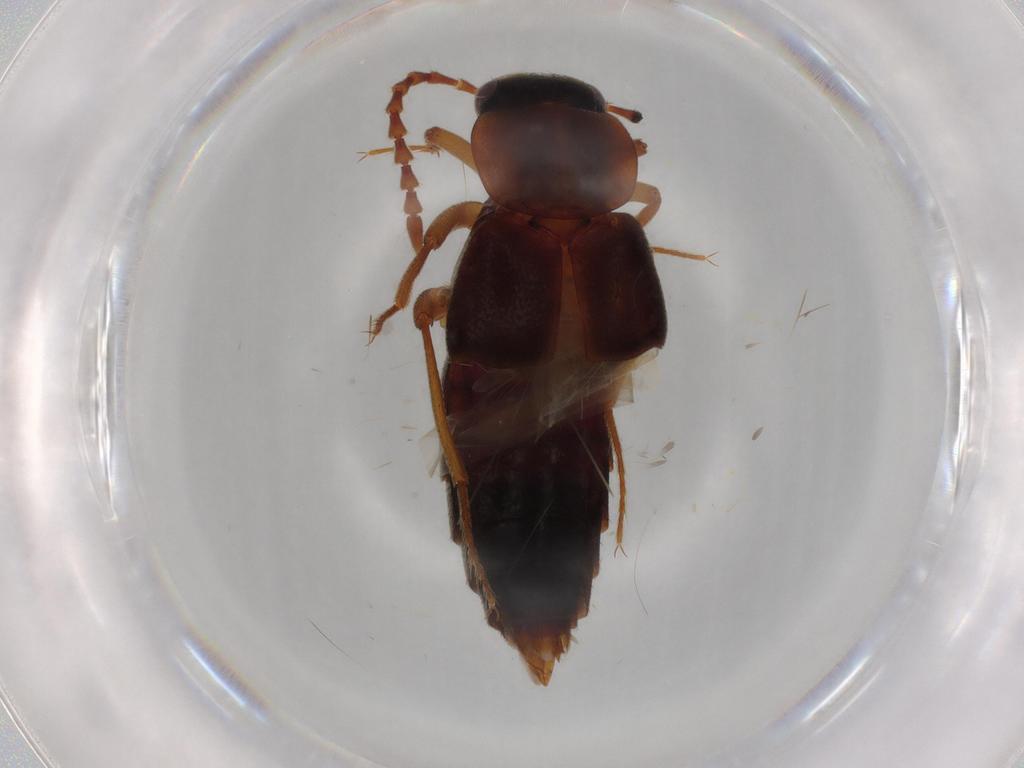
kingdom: Animalia
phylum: Arthropoda
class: Insecta
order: Coleoptera
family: Staphylinidae
